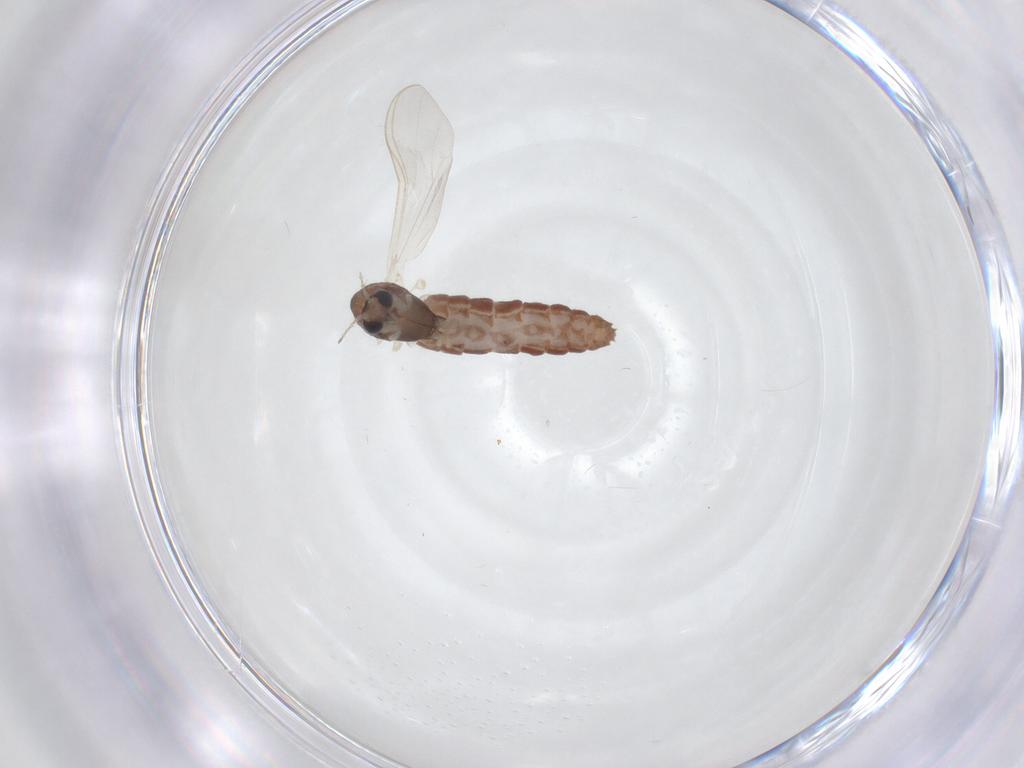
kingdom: Animalia
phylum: Arthropoda
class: Insecta
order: Diptera
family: Chironomidae
